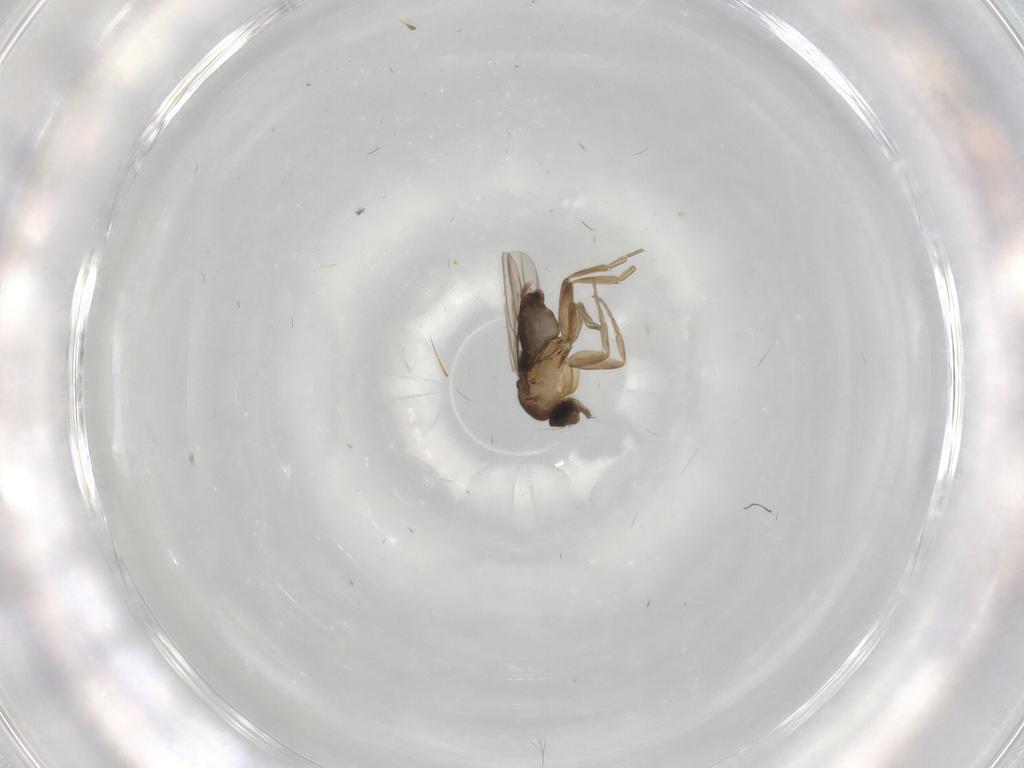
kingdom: Animalia
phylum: Arthropoda
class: Insecta
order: Diptera
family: Phoridae
